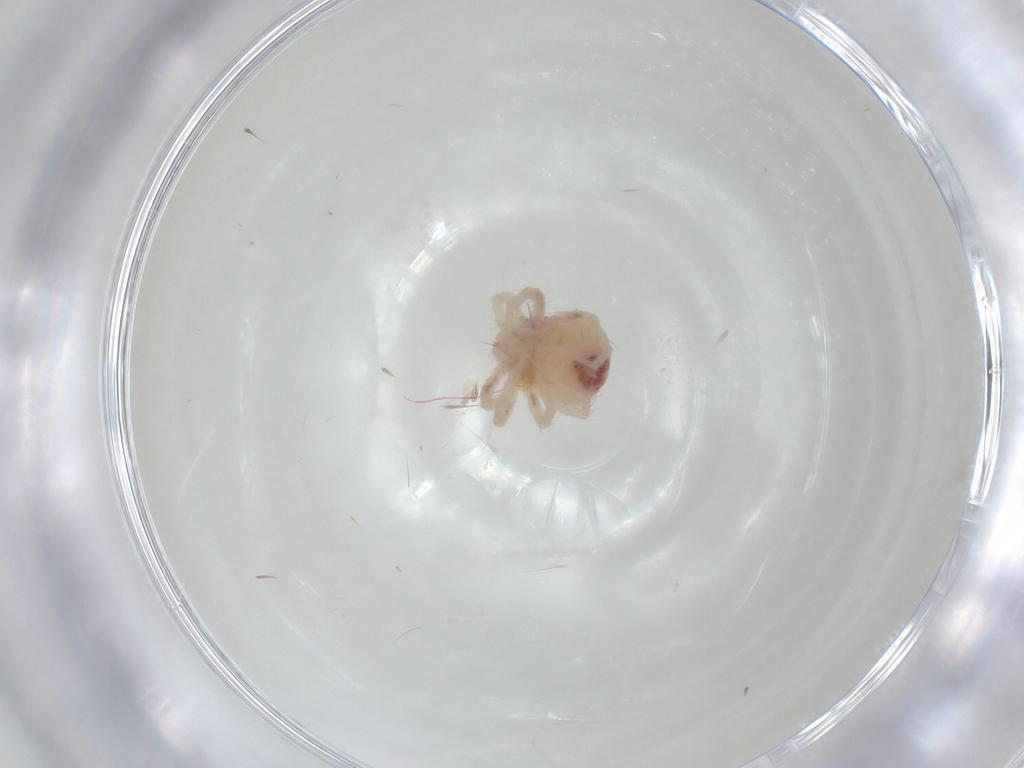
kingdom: Animalia
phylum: Arthropoda
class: Arachnida
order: Trombidiformes
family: Anystidae
